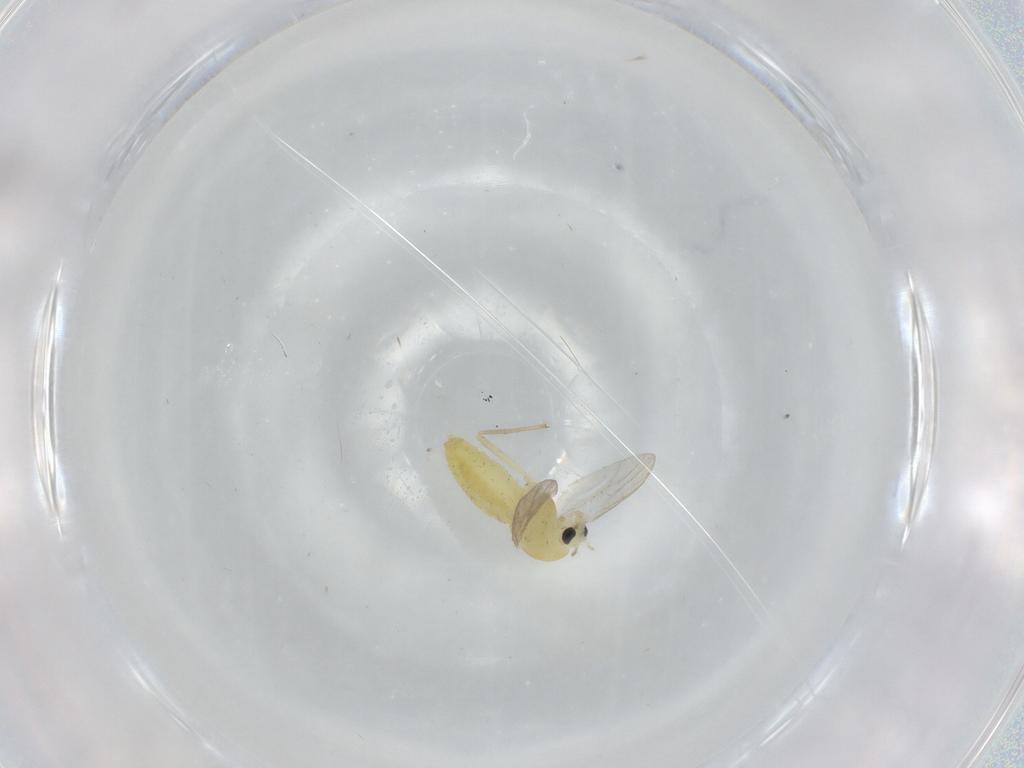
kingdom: Animalia
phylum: Arthropoda
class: Insecta
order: Diptera
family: Chironomidae
